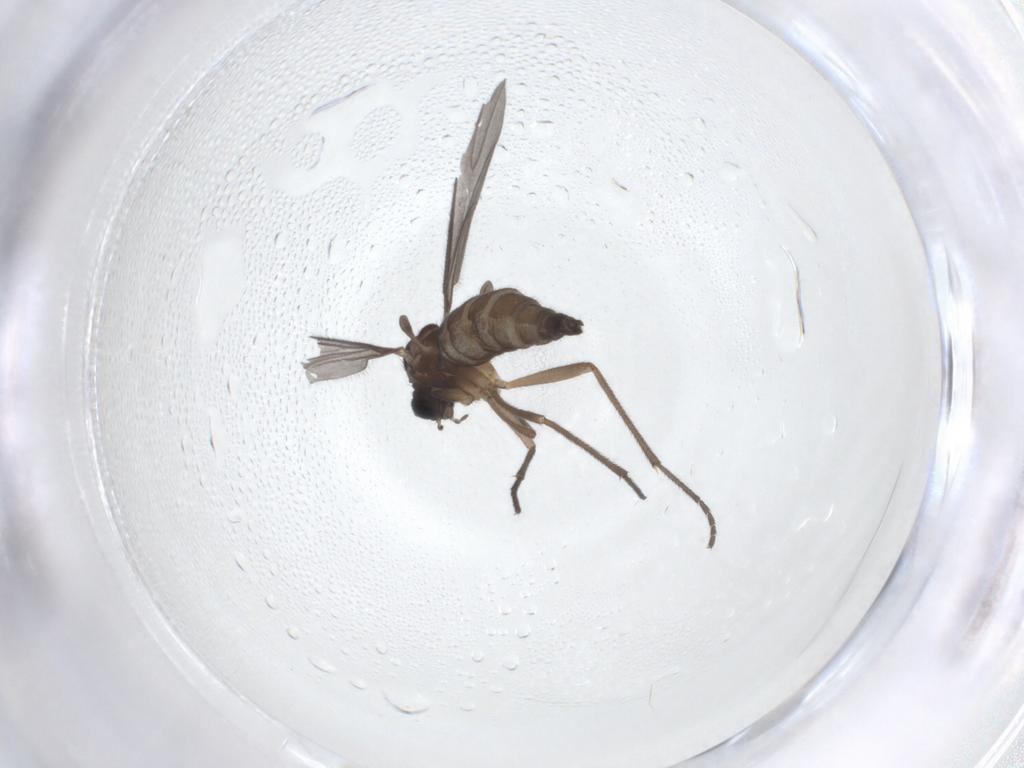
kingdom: Animalia
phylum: Arthropoda
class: Insecta
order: Diptera
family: Sciaridae
